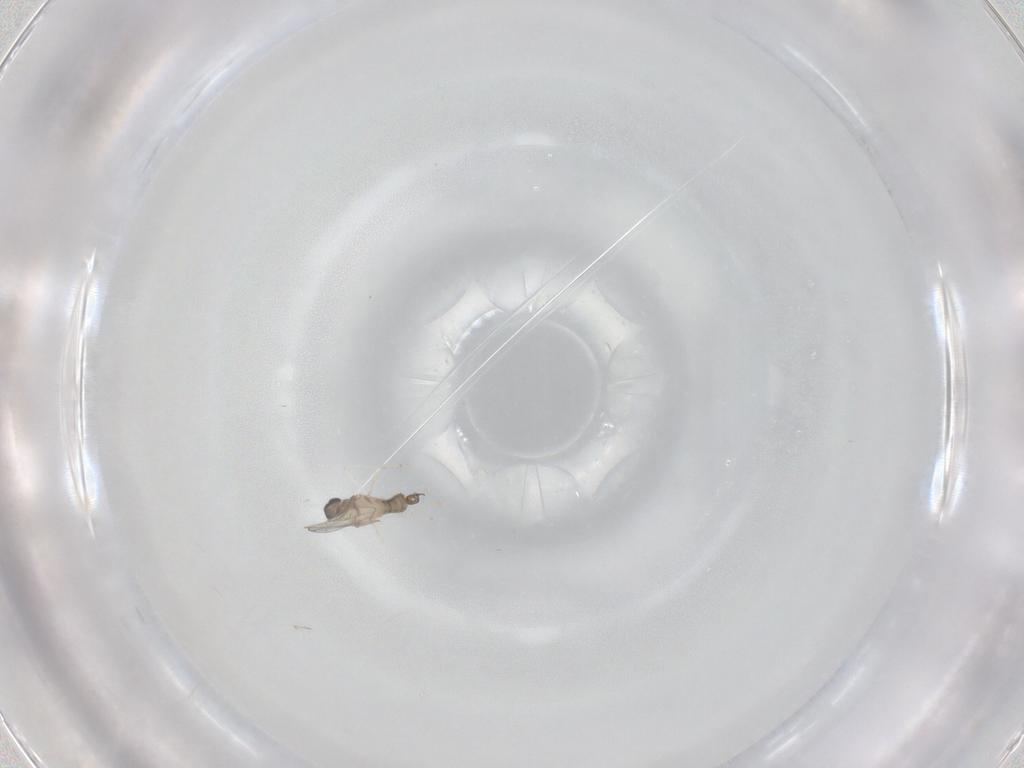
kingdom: Animalia
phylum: Arthropoda
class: Insecta
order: Diptera
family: Cecidomyiidae
